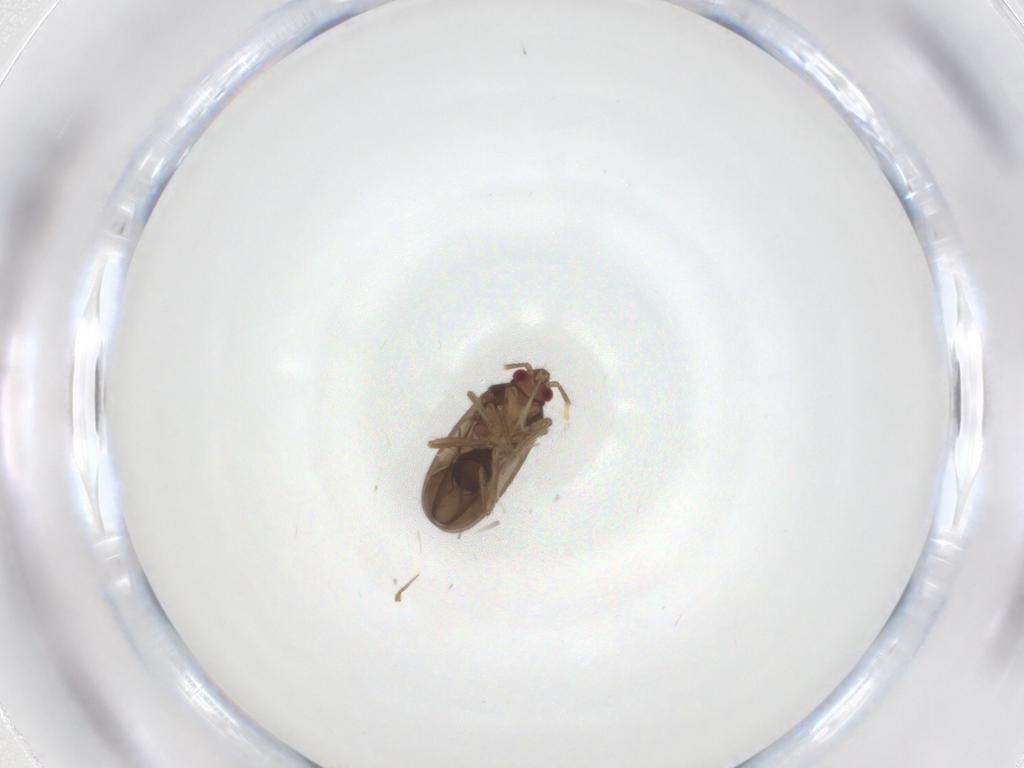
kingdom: Animalia
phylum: Arthropoda
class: Insecta
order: Hemiptera
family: Ceratocombidae
